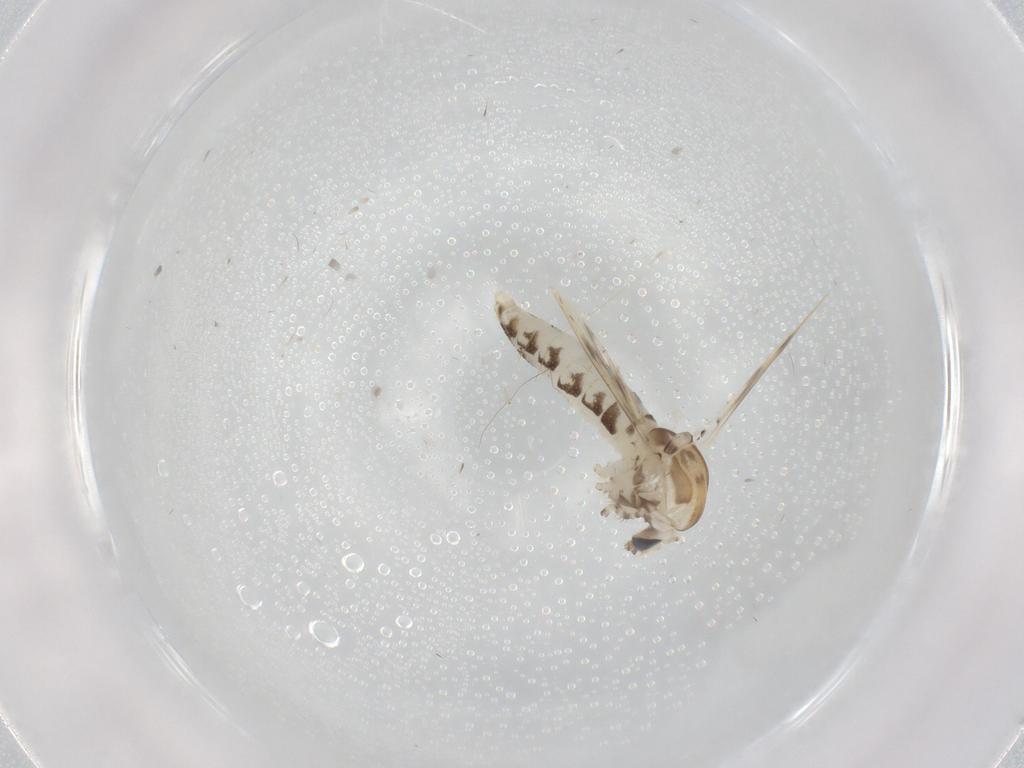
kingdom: Animalia
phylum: Arthropoda
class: Insecta
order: Diptera
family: Corethrellidae
